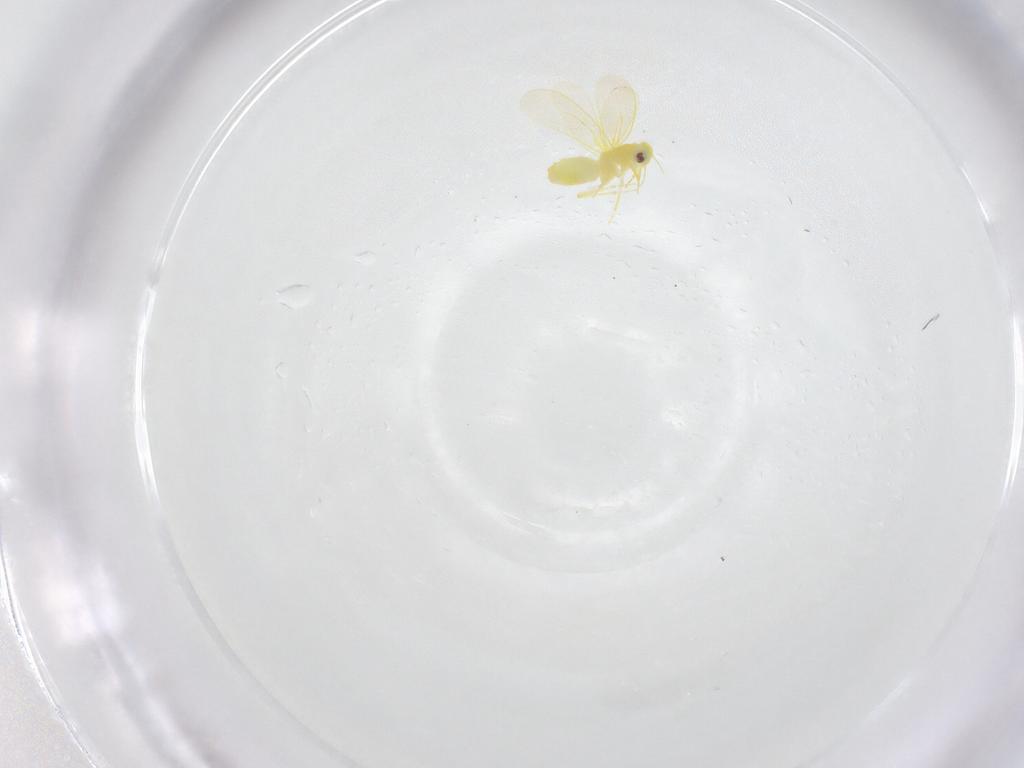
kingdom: Animalia
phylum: Arthropoda
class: Insecta
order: Hemiptera
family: Aleyrodidae
